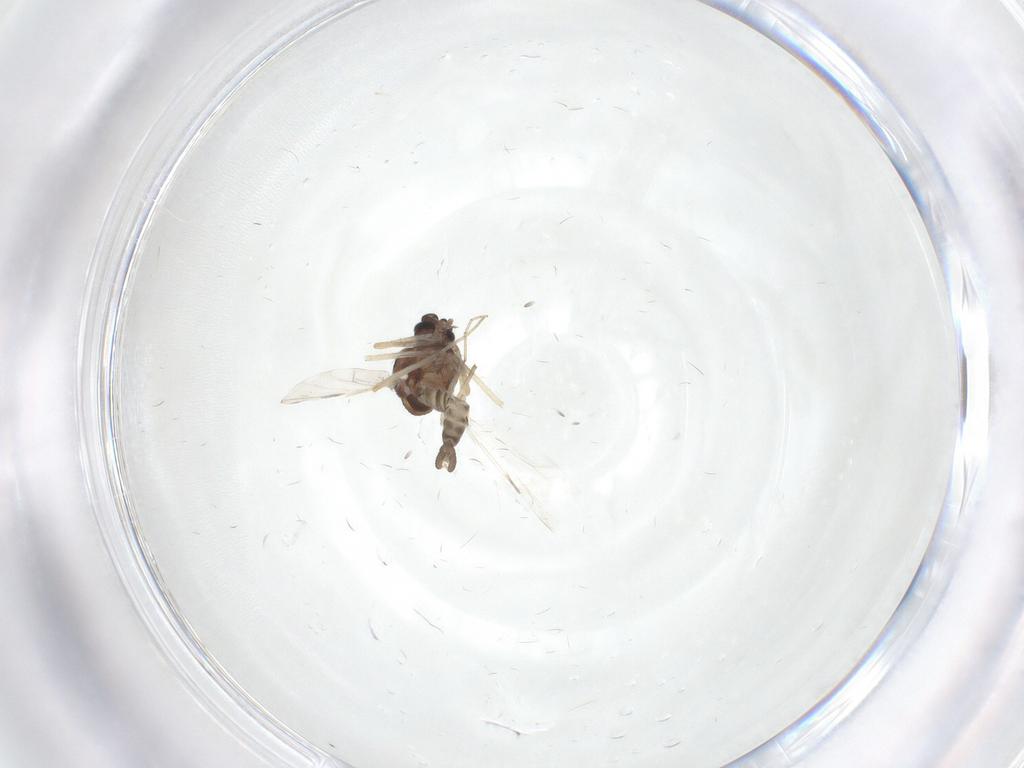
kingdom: Animalia
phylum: Arthropoda
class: Insecta
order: Diptera
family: Ceratopogonidae
